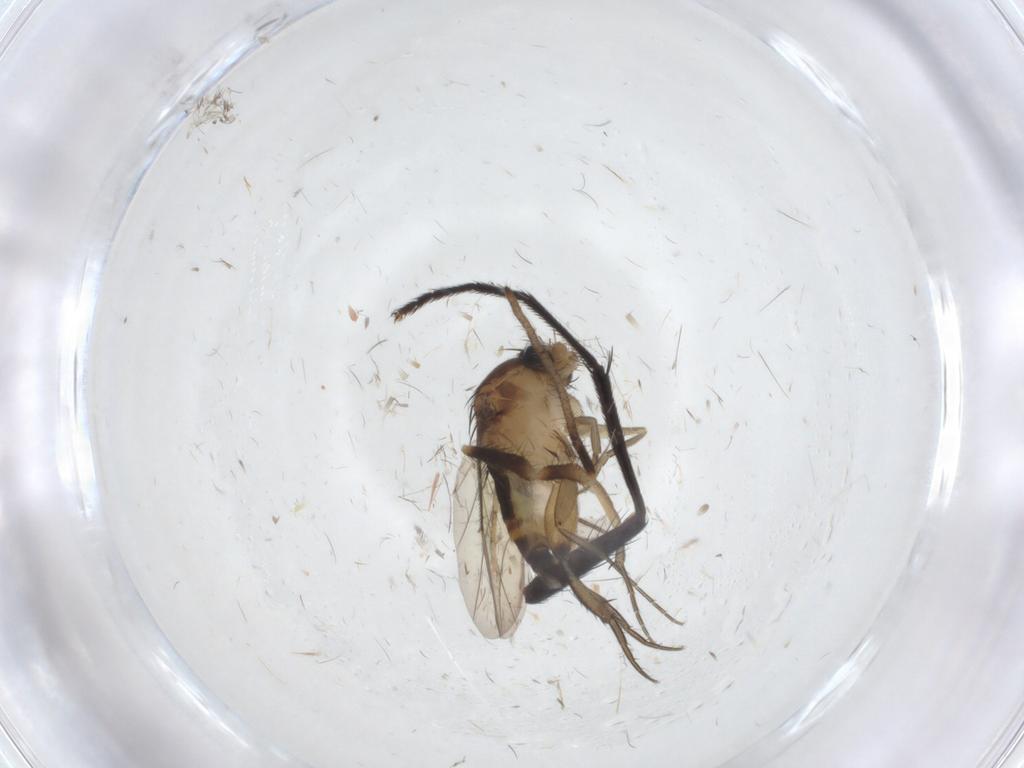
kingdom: Animalia
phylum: Arthropoda
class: Insecta
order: Diptera
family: Phoridae
